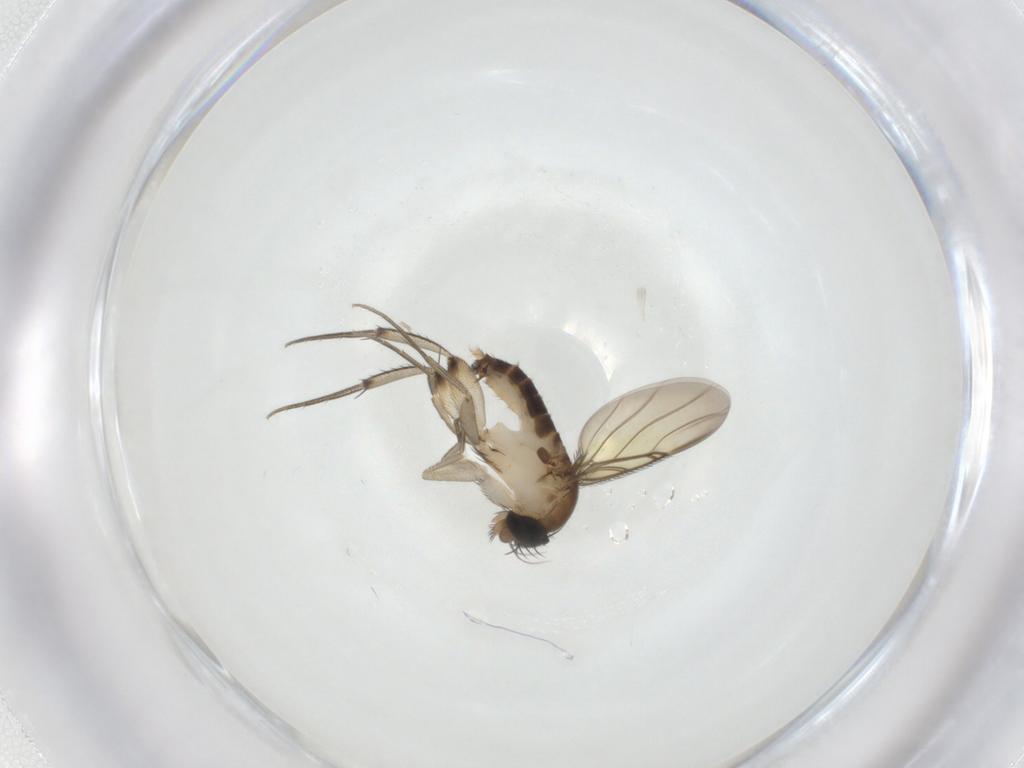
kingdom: Animalia
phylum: Arthropoda
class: Insecta
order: Diptera
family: Phoridae
